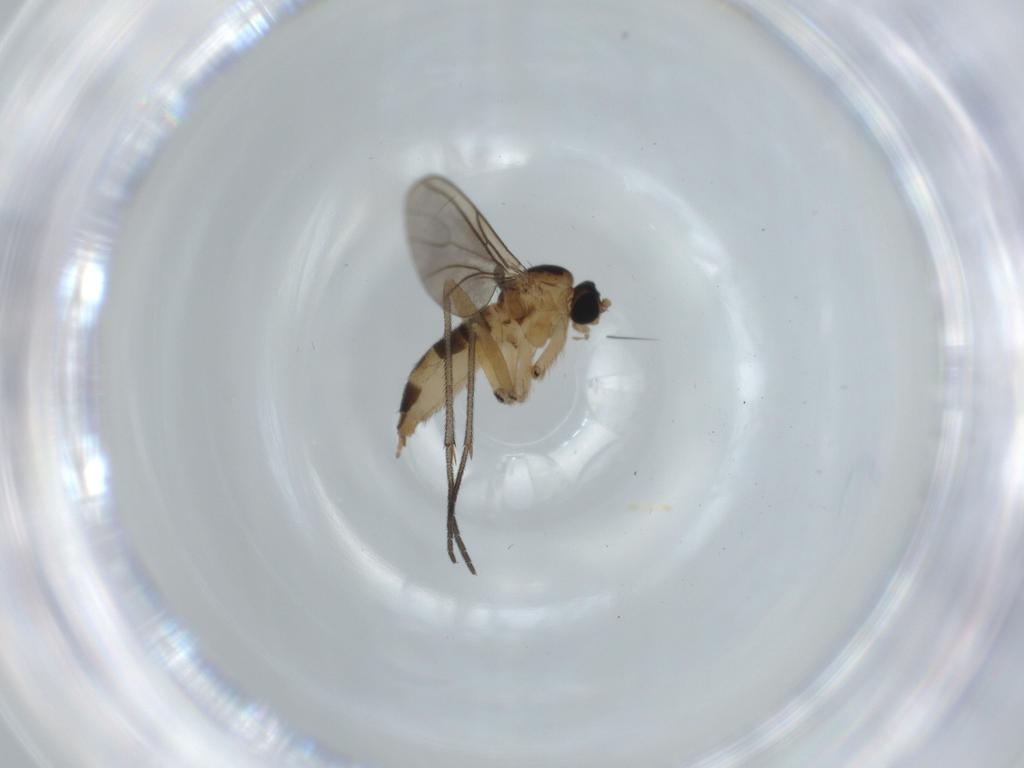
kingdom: Animalia
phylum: Arthropoda
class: Insecta
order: Diptera
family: Sciaridae
